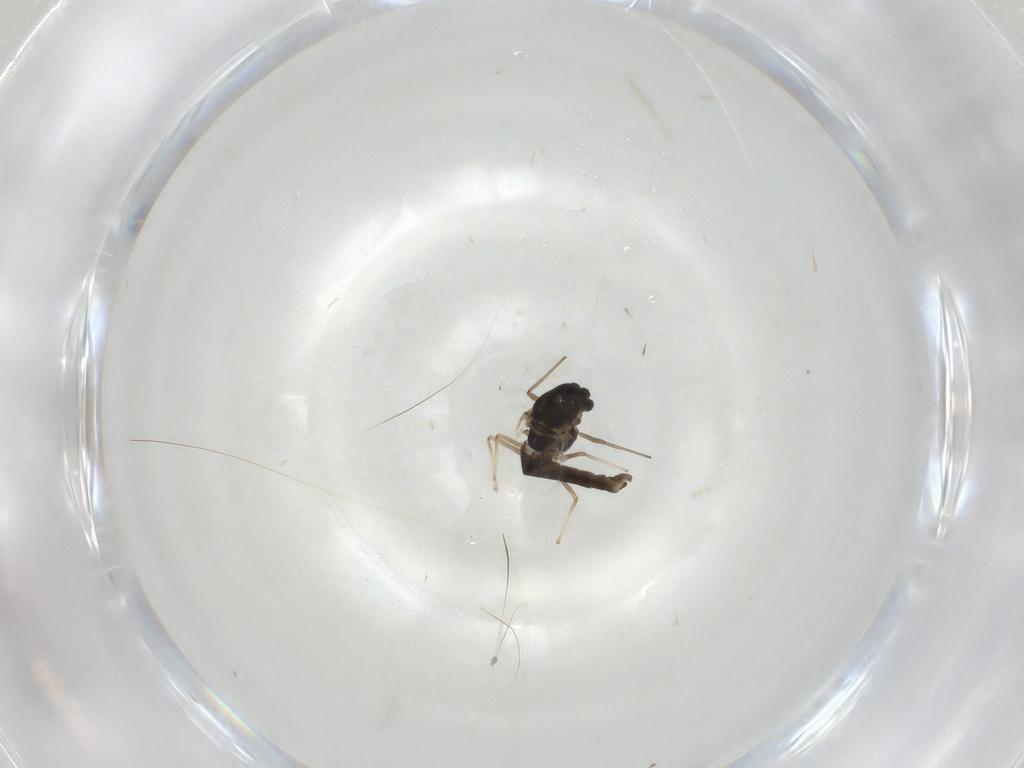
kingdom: Animalia
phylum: Arthropoda
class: Insecta
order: Diptera
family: Chironomidae
